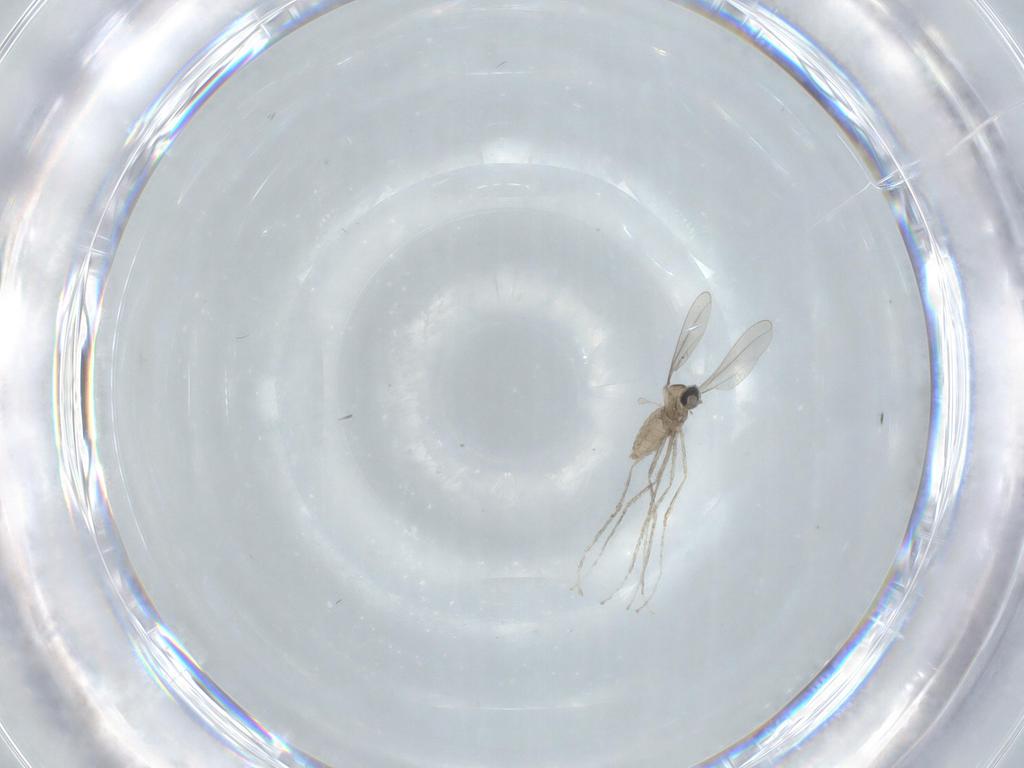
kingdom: Animalia
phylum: Arthropoda
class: Insecta
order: Diptera
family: Cecidomyiidae
